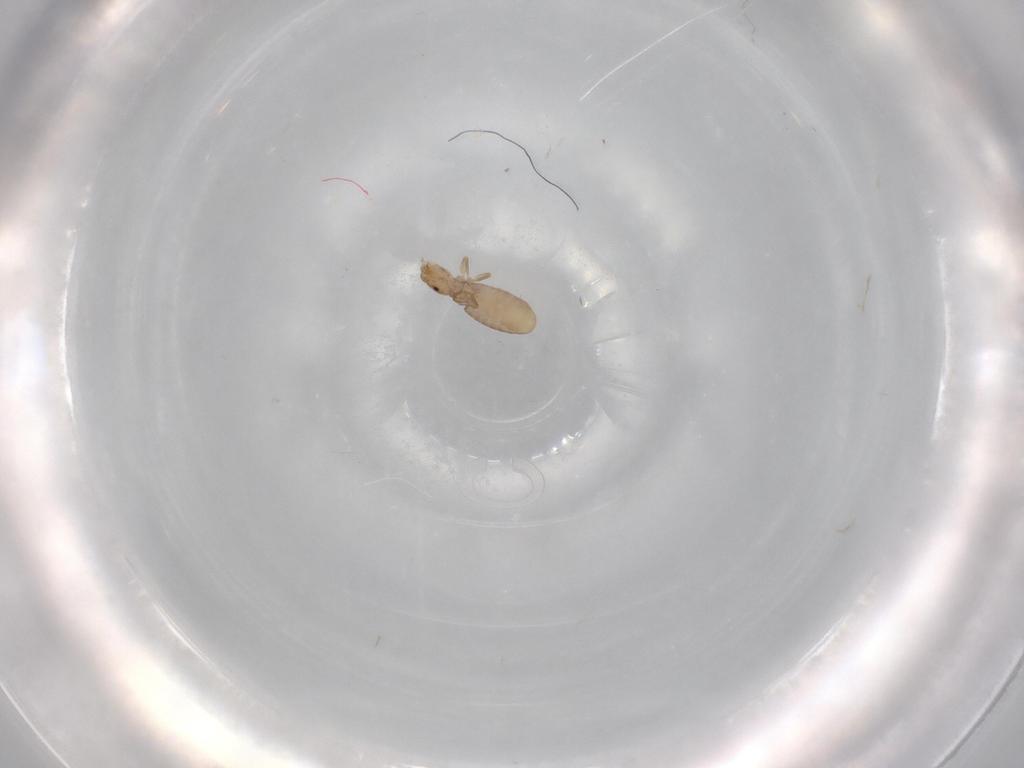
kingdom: Animalia
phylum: Arthropoda
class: Insecta
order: Psocodea
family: Liposcelididae
